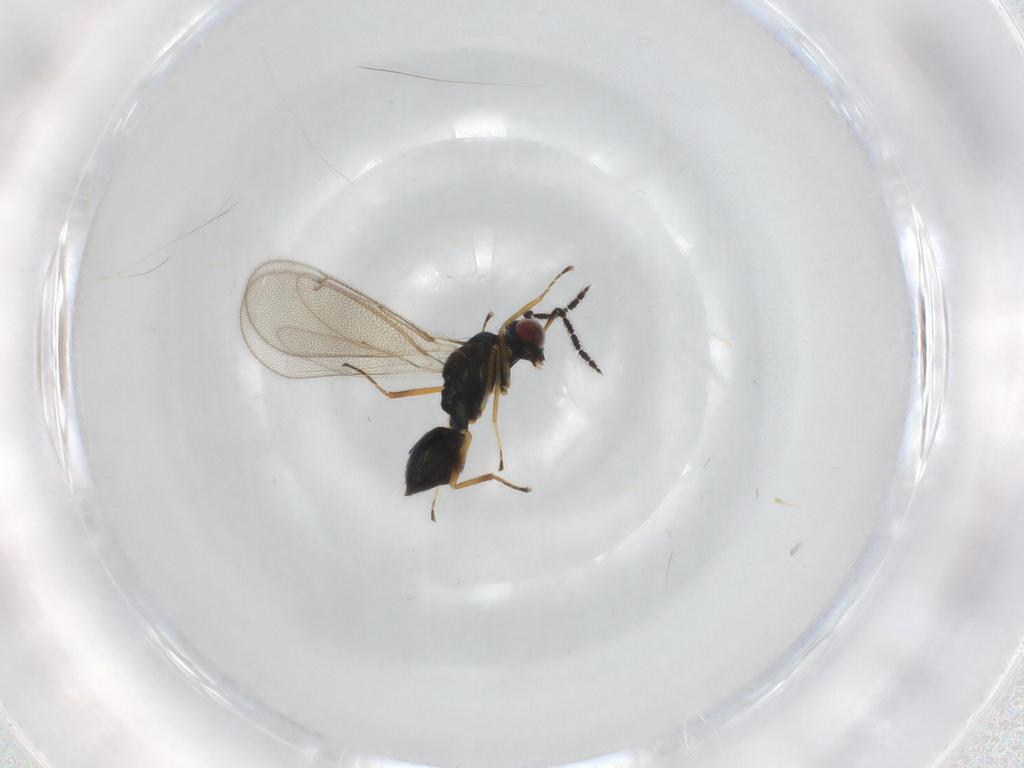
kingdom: Animalia
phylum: Arthropoda
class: Insecta
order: Hymenoptera
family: Eulophidae
